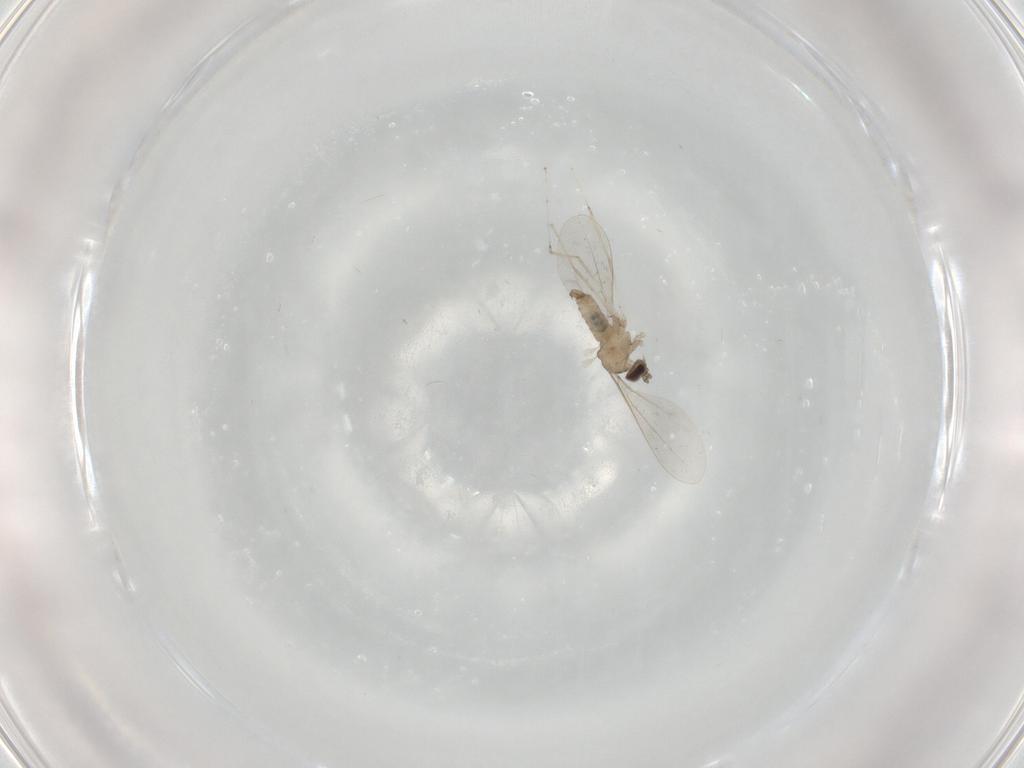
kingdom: Animalia
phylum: Arthropoda
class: Insecta
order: Diptera
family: Cecidomyiidae
